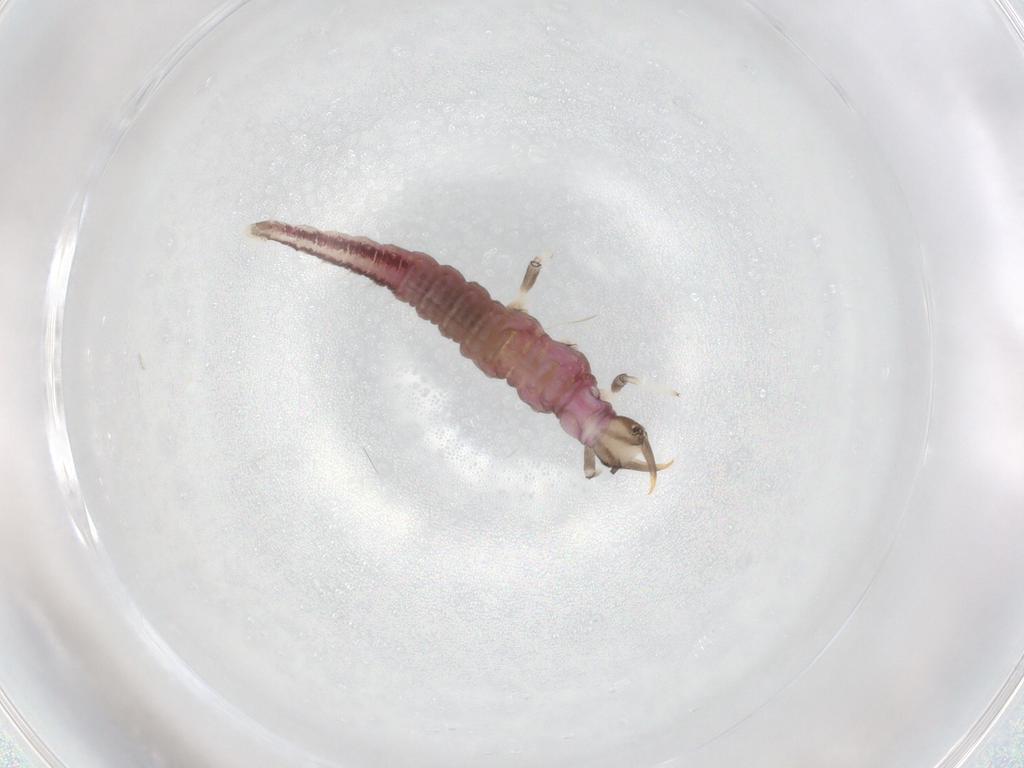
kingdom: Animalia
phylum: Arthropoda
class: Insecta
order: Neuroptera
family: Hemerobiidae
